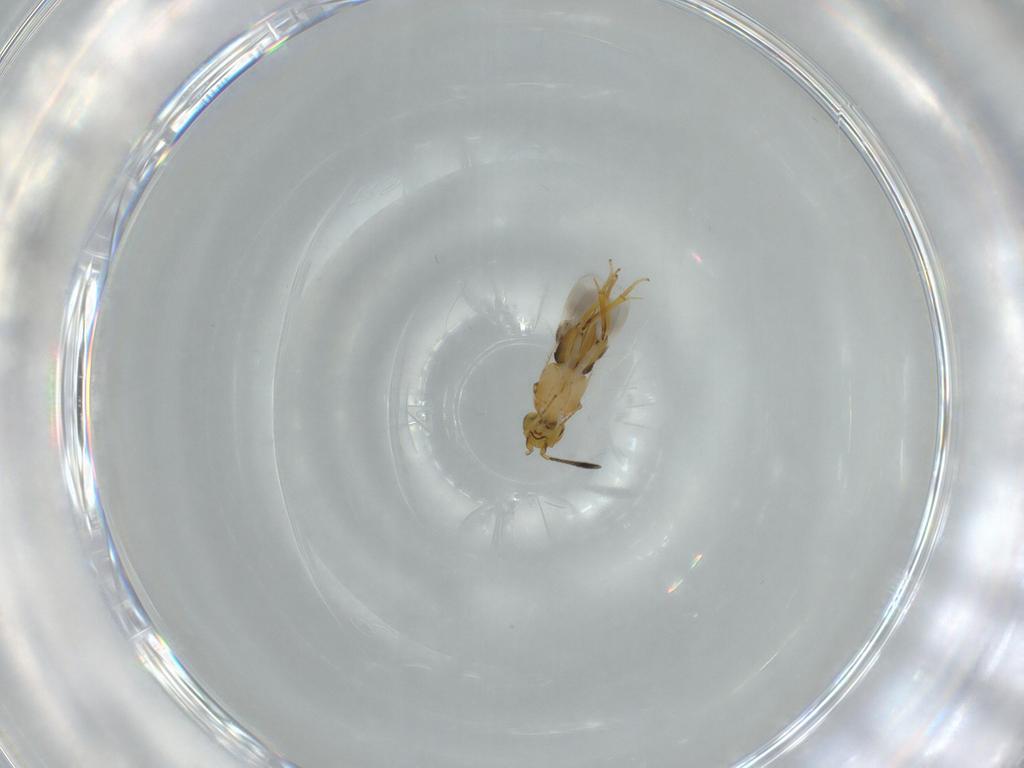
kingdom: Animalia
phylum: Arthropoda
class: Insecta
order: Hymenoptera
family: Encyrtidae
